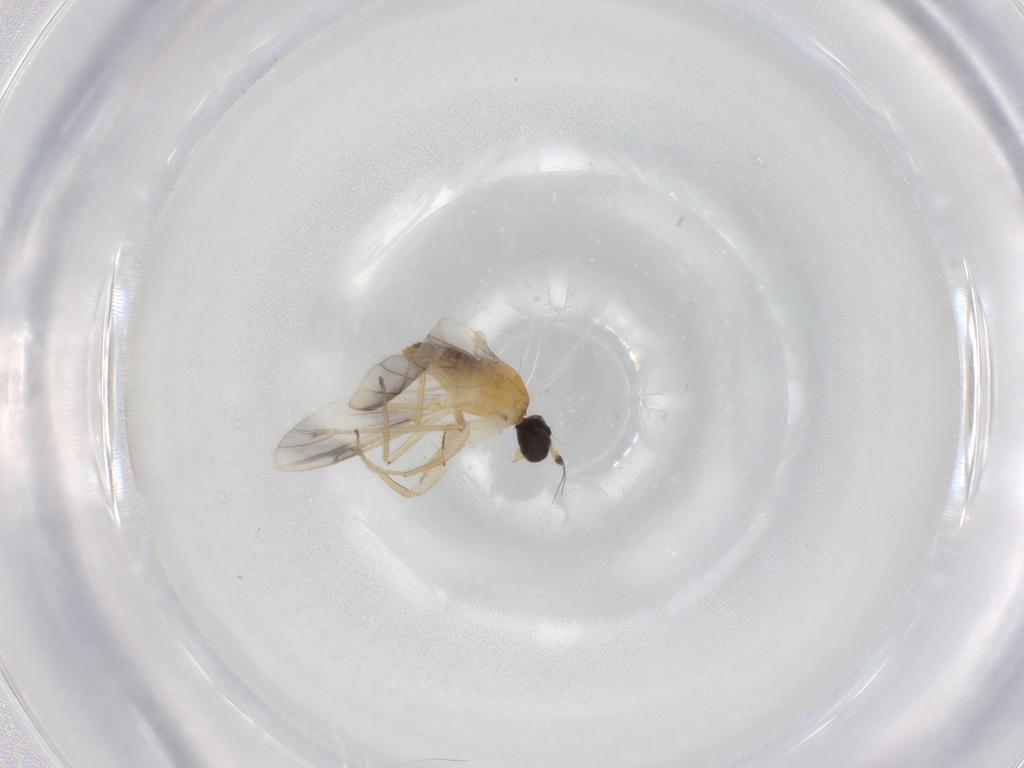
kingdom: Animalia
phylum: Arthropoda
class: Insecta
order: Diptera
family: Empididae
